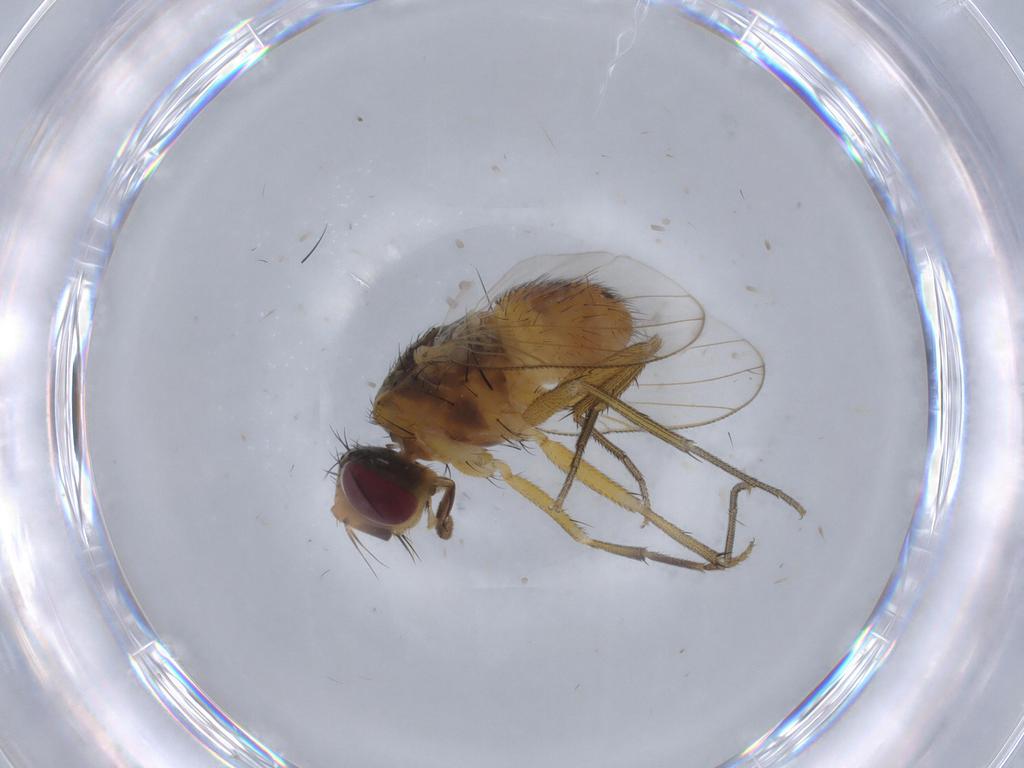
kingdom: Animalia
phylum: Arthropoda
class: Insecta
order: Diptera
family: Muscidae
